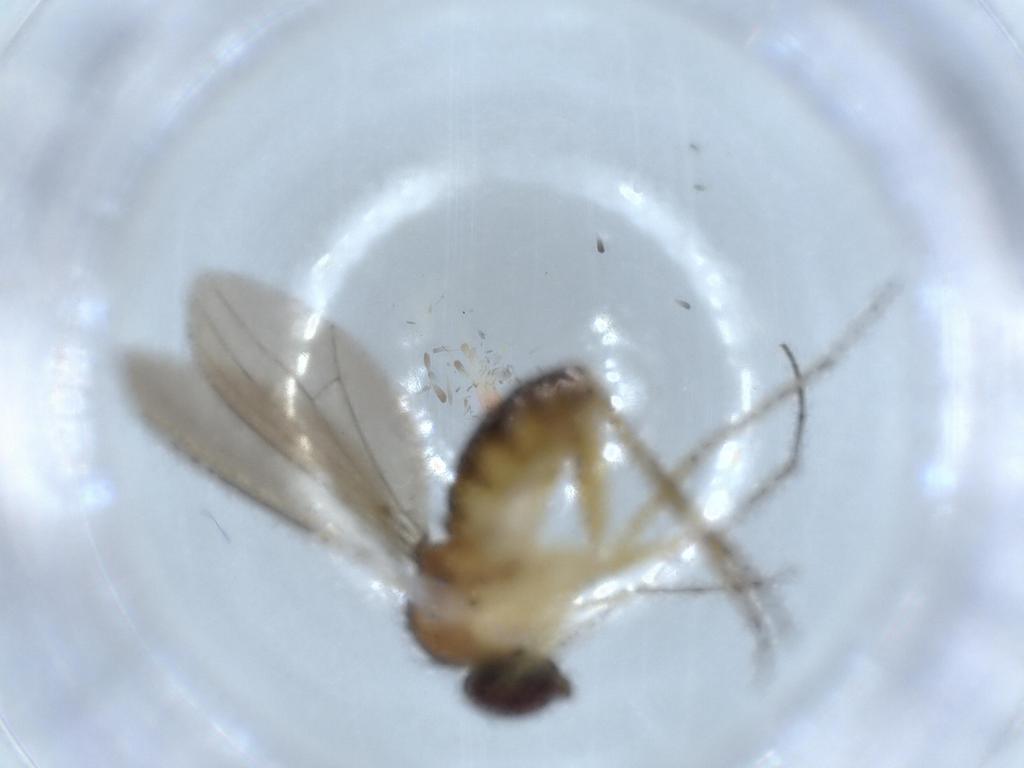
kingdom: Animalia
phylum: Arthropoda
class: Insecta
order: Diptera
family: Dolichopodidae
